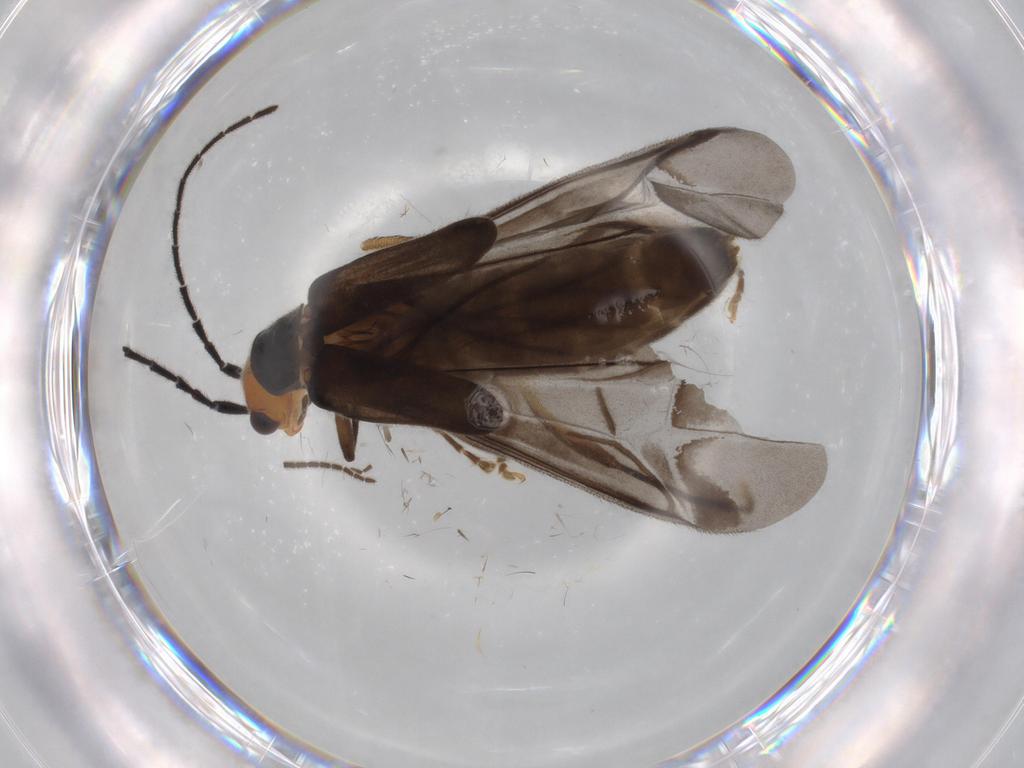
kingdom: Animalia
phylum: Arthropoda
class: Insecta
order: Coleoptera
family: Cantharidae
